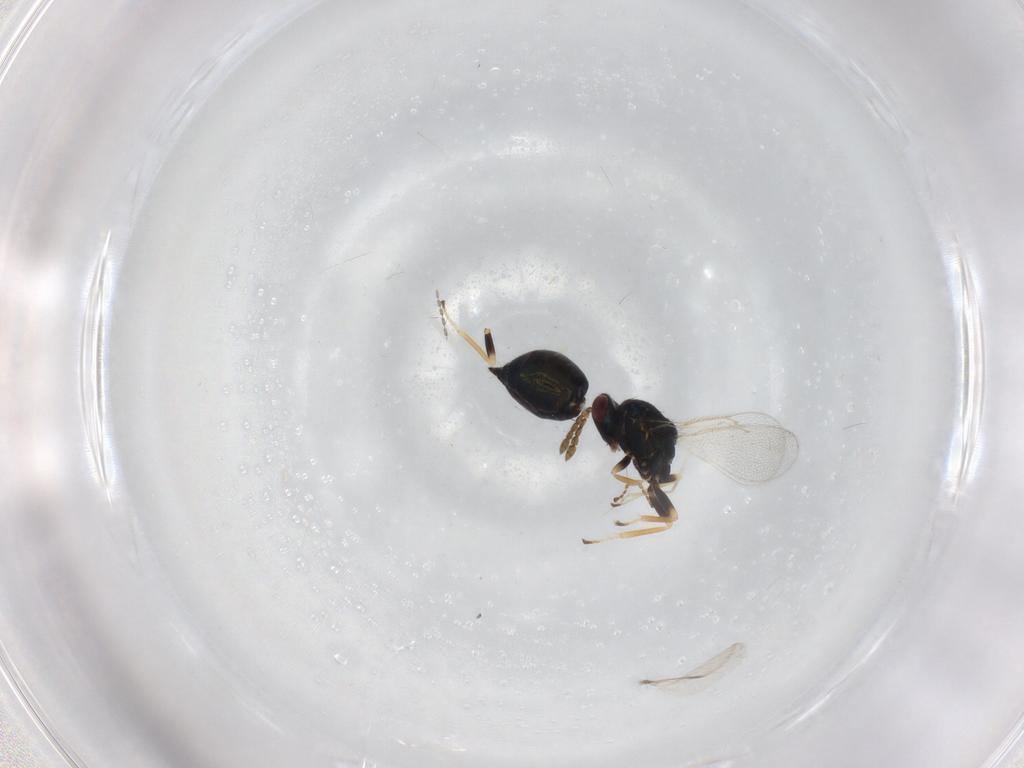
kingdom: Animalia
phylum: Arthropoda
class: Insecta
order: Hymenoptera
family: Eulophidae
